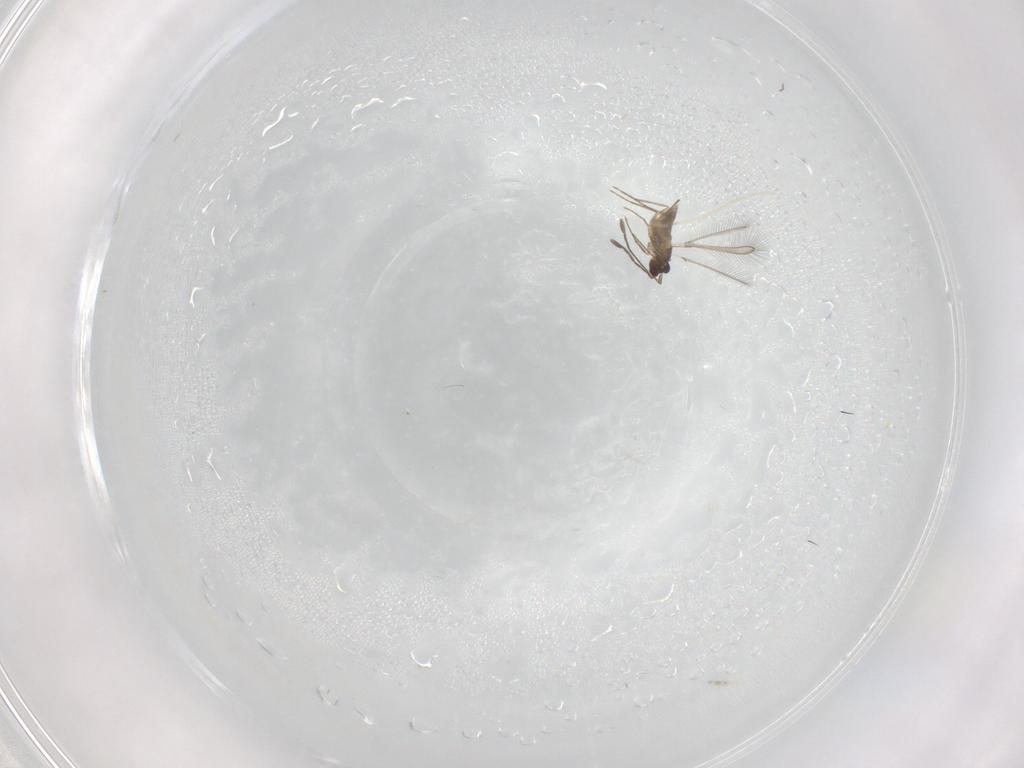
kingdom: Animalia
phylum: Arthropoda
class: Insecta
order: Hymenoptera
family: Mymaridae
